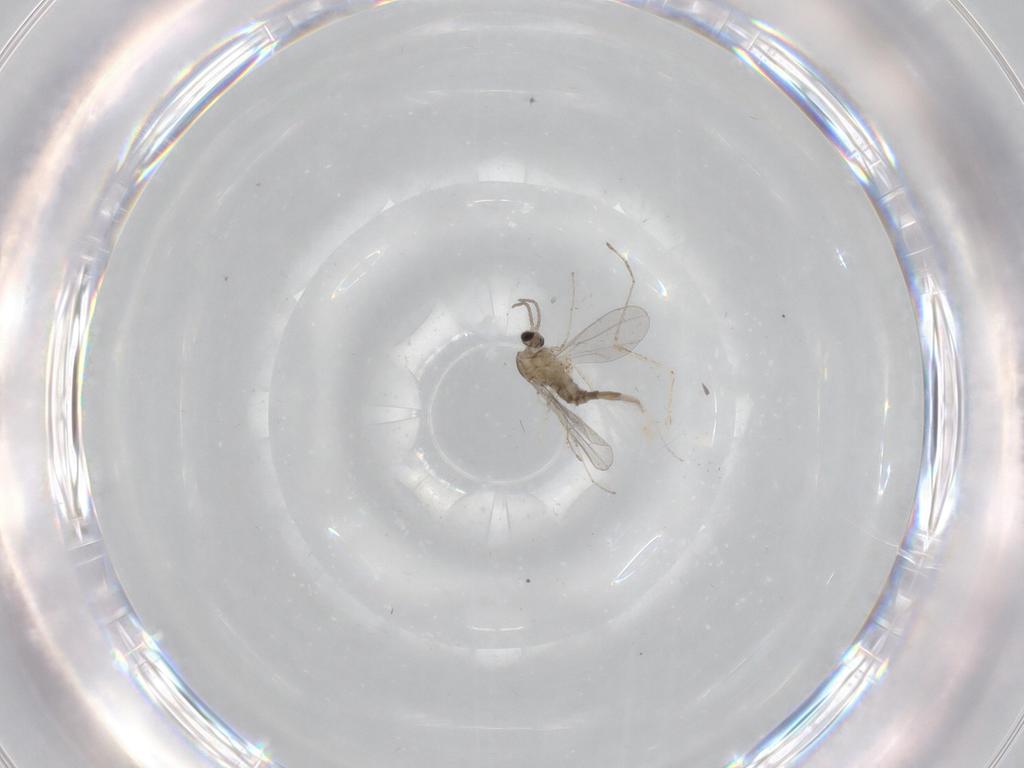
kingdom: Animalia
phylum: Arthropoda
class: Insecta
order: Diptera
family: Cecidomyiidae
